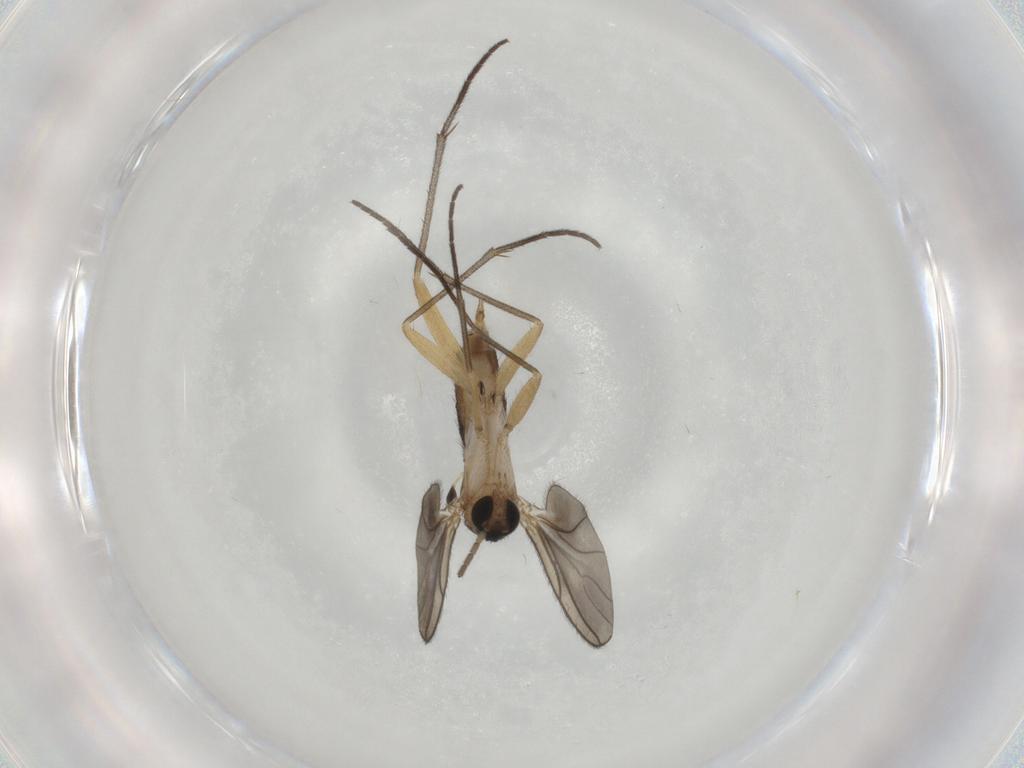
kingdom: Animalia
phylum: Arthropoda
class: Insecta
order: Diptera
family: Sciaridae
